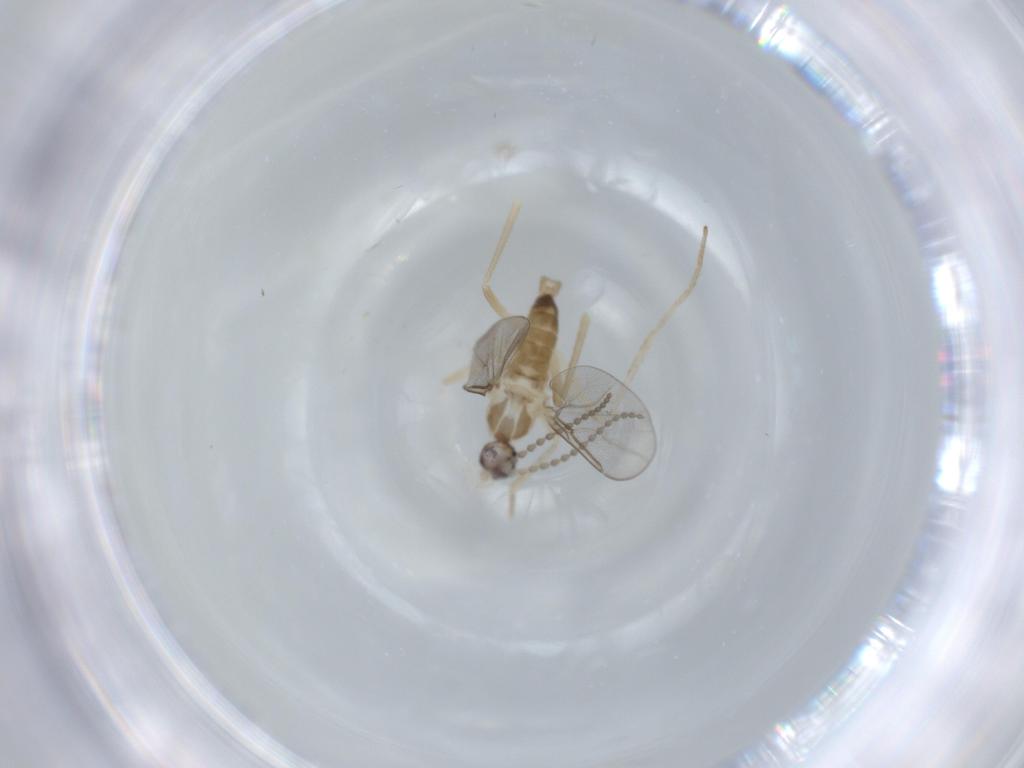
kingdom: Animalia
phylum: Arthropoda
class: Insecta
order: Diptera
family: Cecidomyiidae
